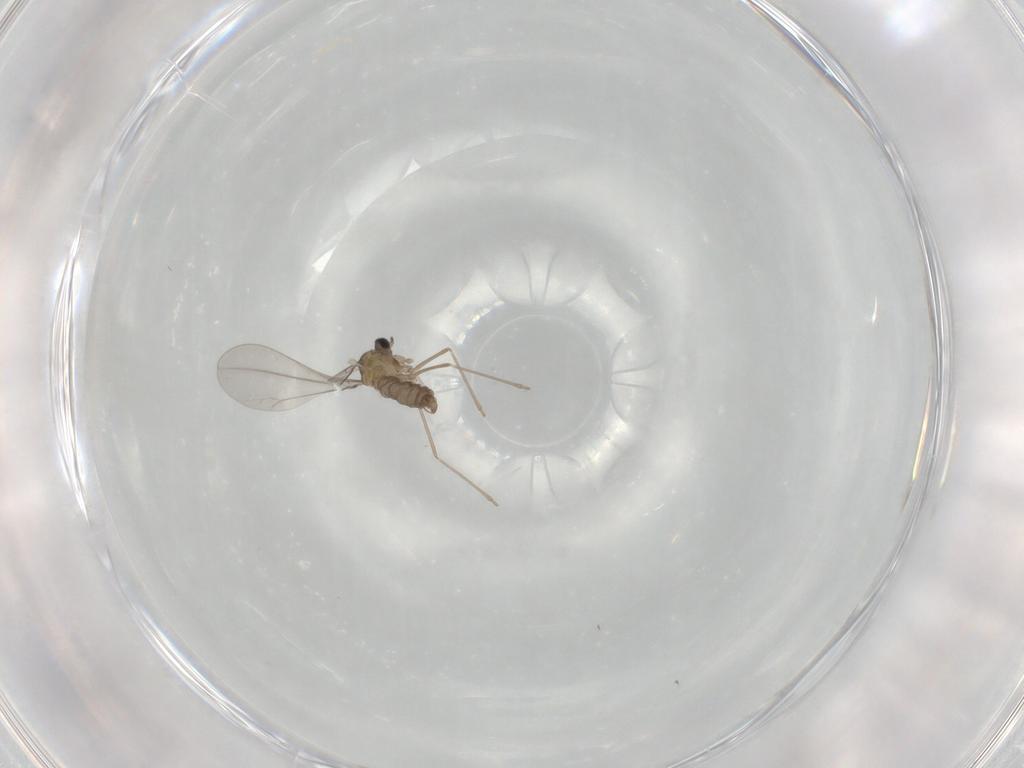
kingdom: Animalia
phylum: Arthropoda
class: Insecta
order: Diptera
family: Cecidomyiidae
